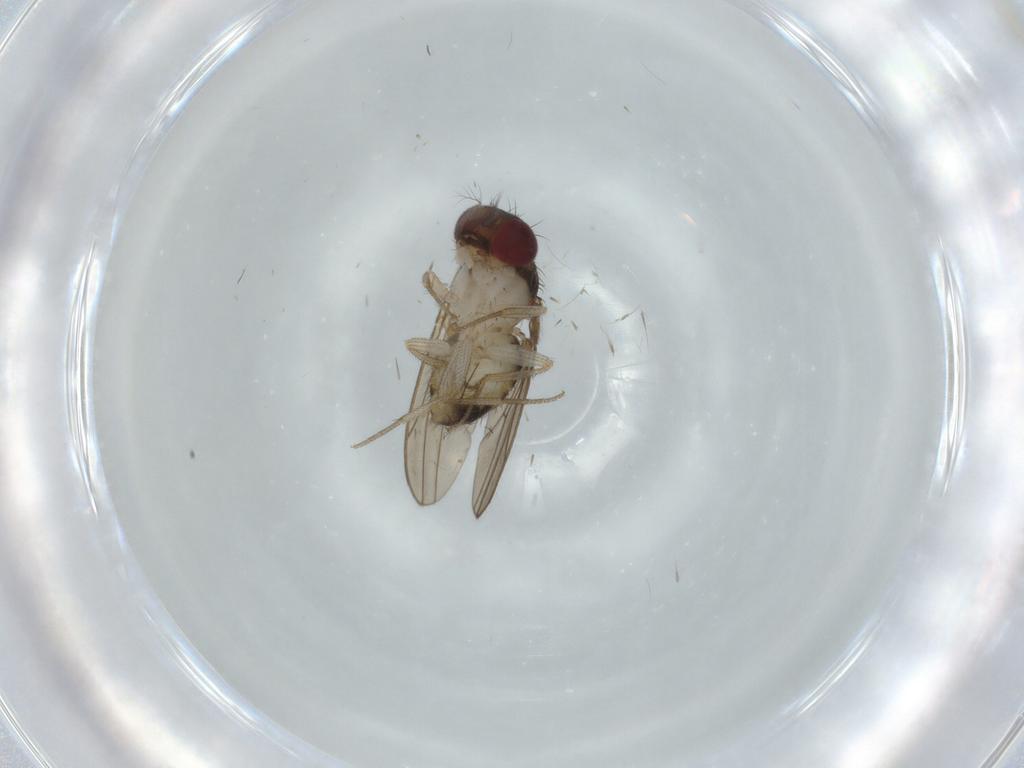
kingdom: Animalia
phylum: Arthropoda
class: Insecta
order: Diptera
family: Drosophilidae
